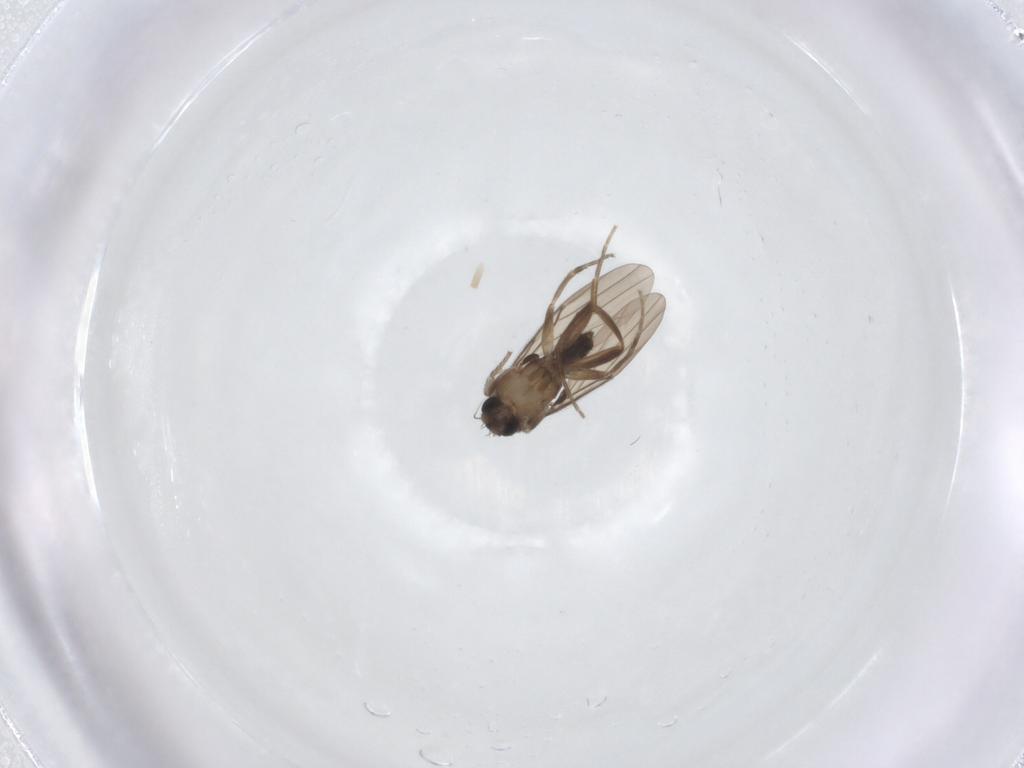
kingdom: Animalia
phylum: Arthropoda
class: Insecta
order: Diptera
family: Phoridae
